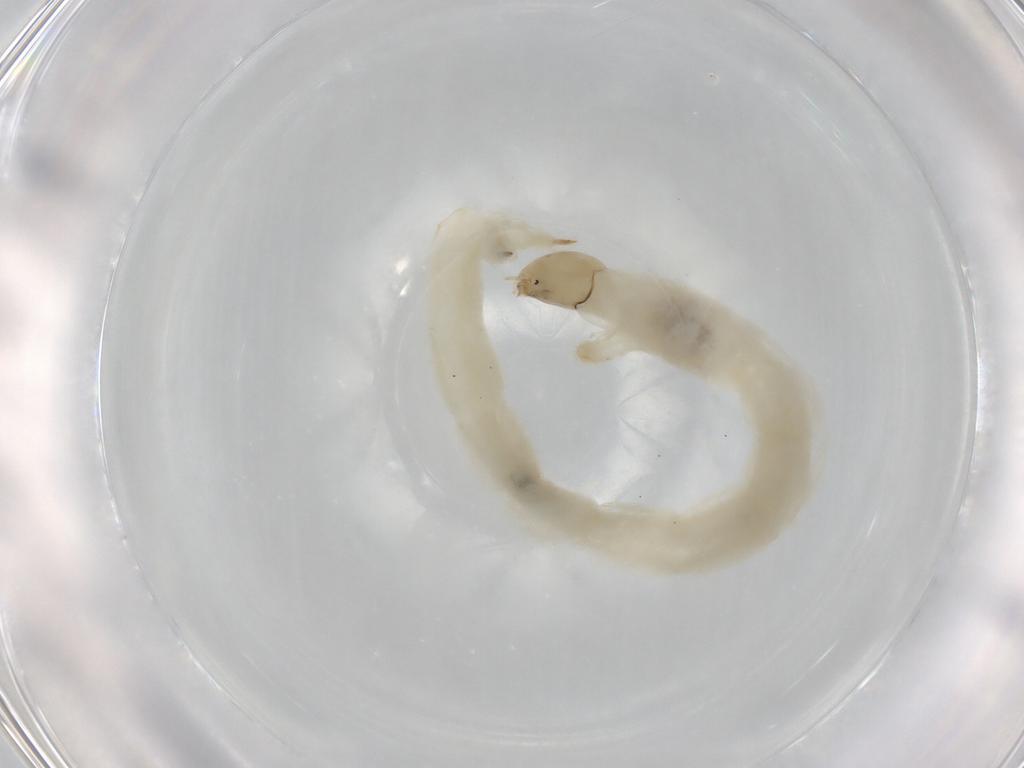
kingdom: Animalia
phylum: Arthropoda
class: Insecta
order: Diptera
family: Chironomidae
